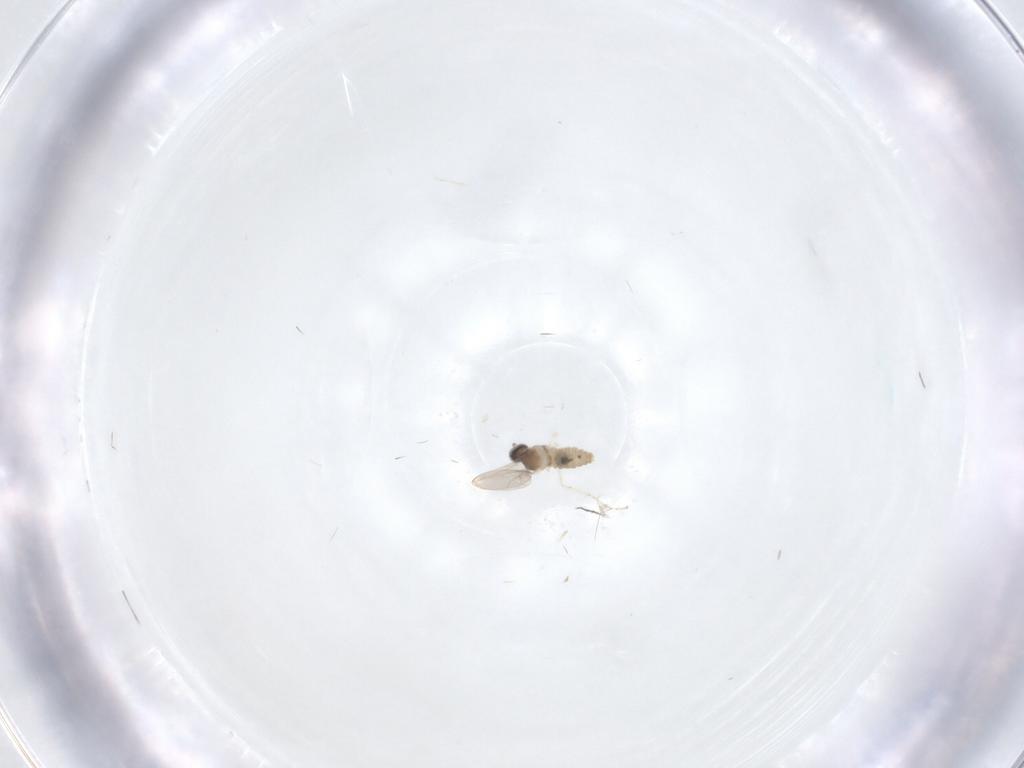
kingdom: Animalia
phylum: Arthropoda
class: Insecta
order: Diptera
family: Cecidomyiidae
